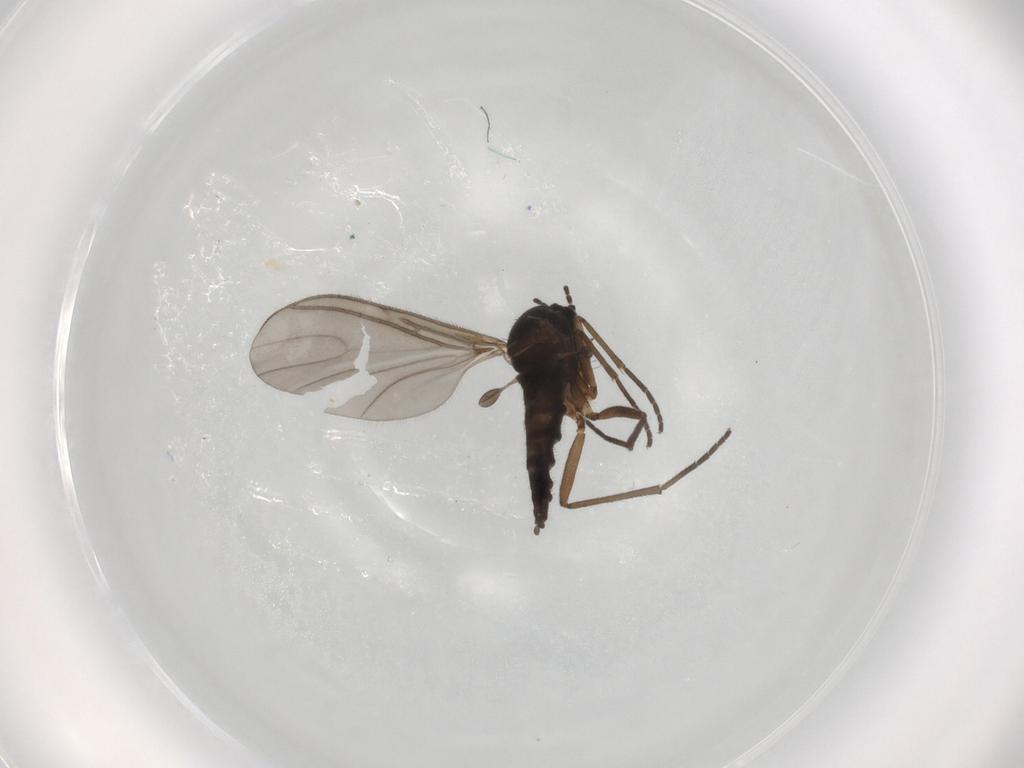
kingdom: Animalia
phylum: Arthropoda
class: Insecta
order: Diptera
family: Sciaridae
